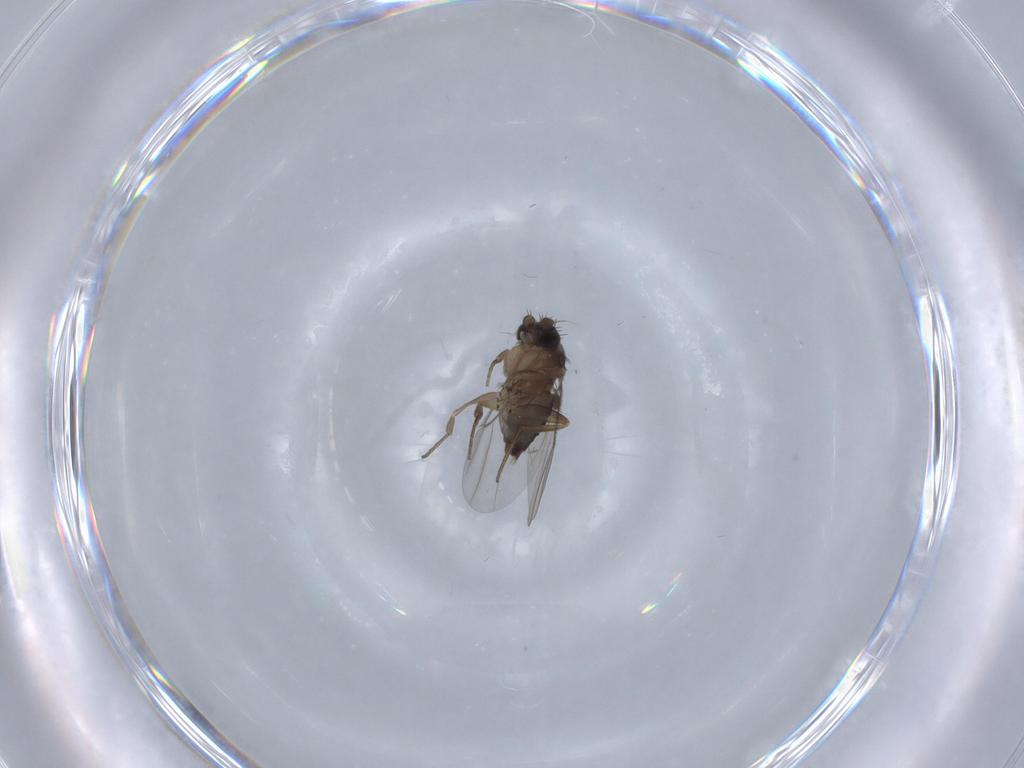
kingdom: Animalia
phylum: Arthropoda
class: Insecta
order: Diptera
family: Phoridae
